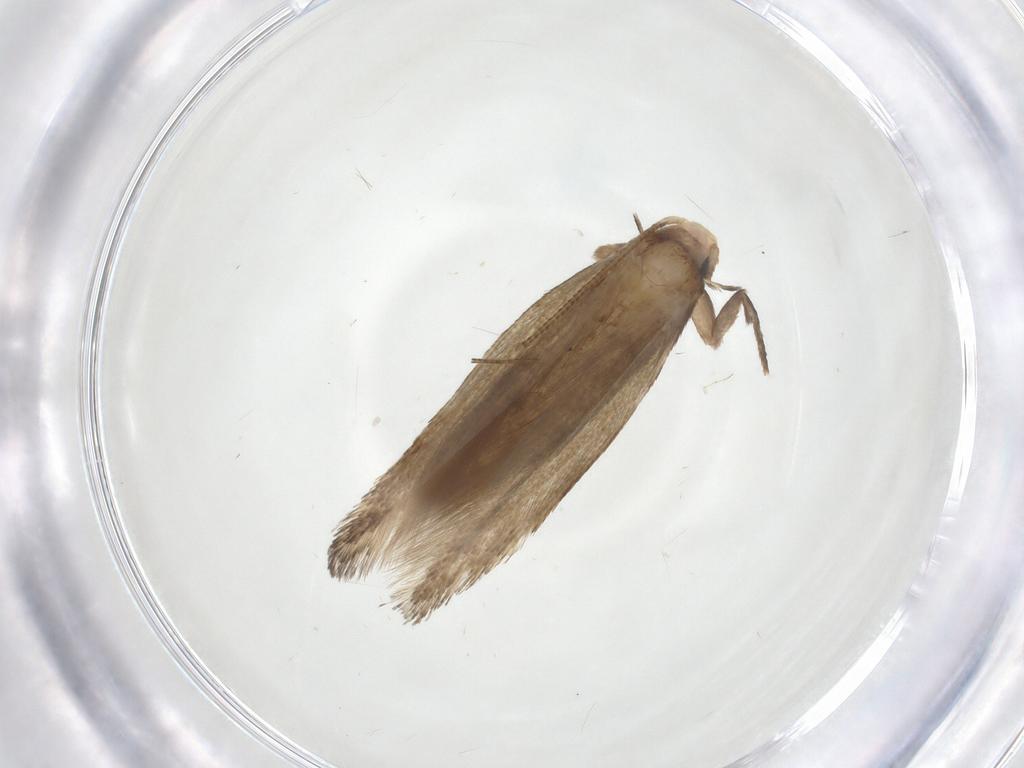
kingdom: Animalia
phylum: Arthropoda
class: Insecta
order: Lepidoptera
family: Tineidae
